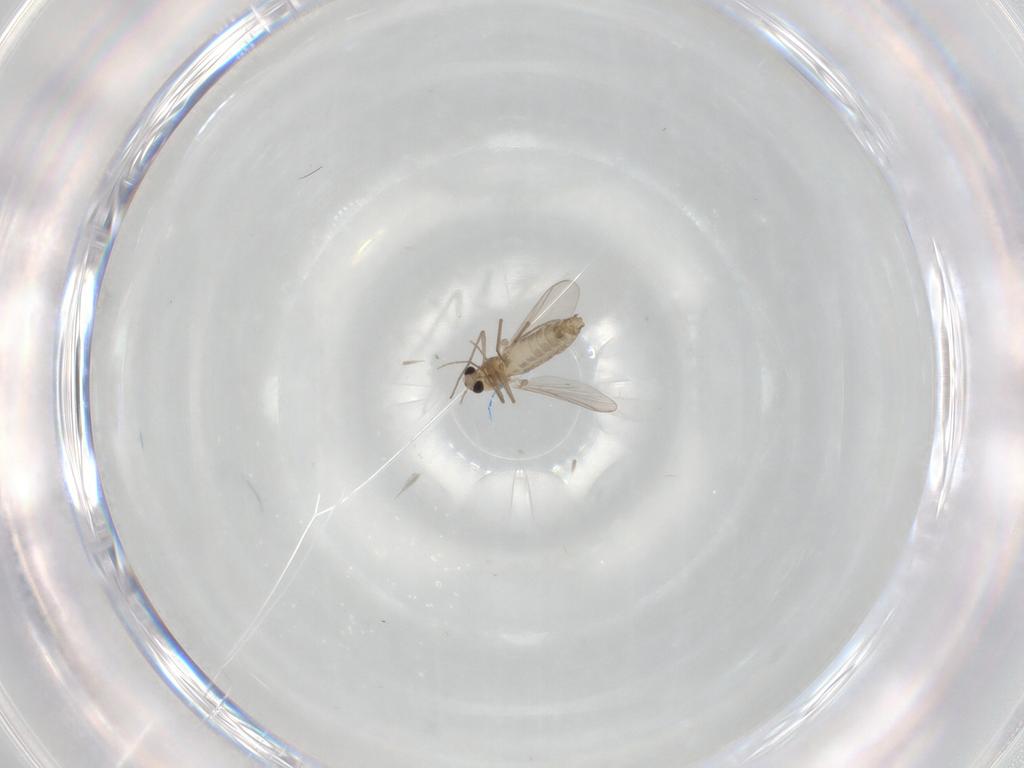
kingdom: Animalia
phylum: Arthropoda
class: Insecta
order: Diptera
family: Chironomidae
